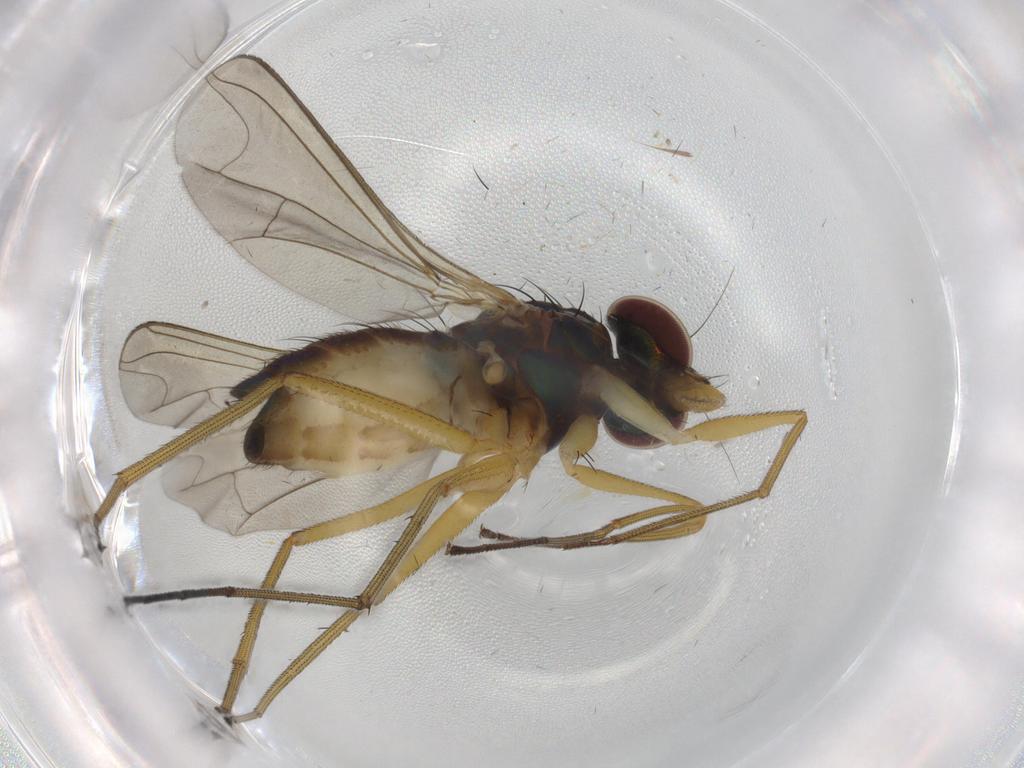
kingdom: Animalia
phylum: Arthropoda
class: Insecta
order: Diptera
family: Dolichopodidae
